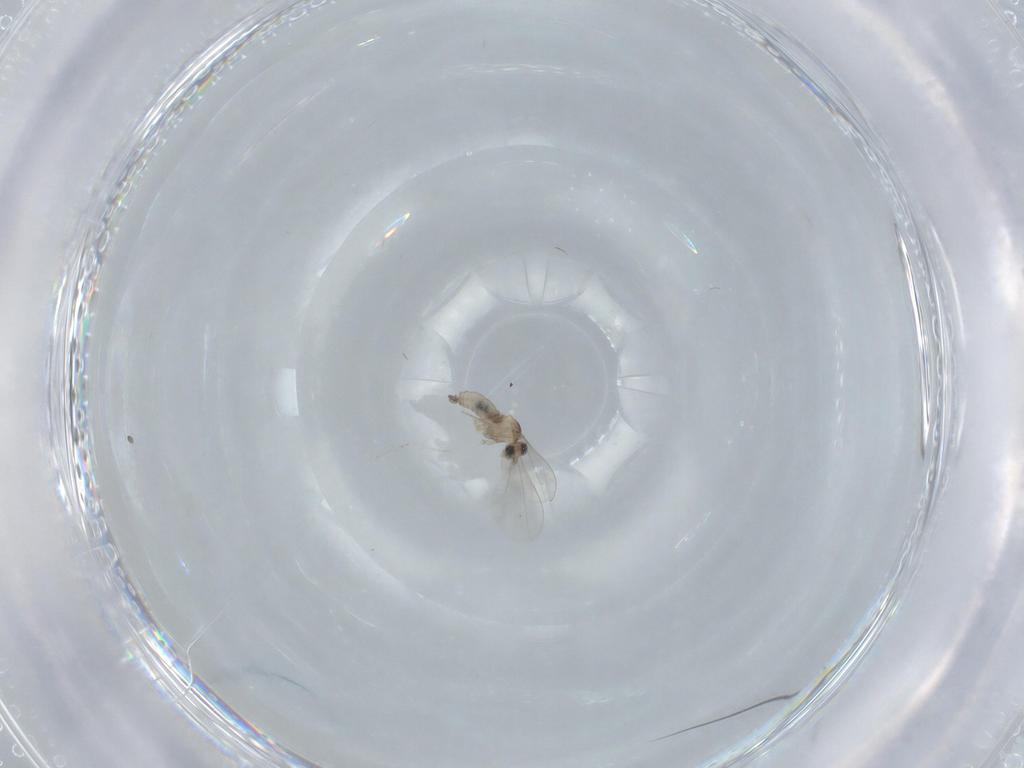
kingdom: Animalia
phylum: Arthropoda
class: Insecta
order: Diptera
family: Cecidomyiidae
